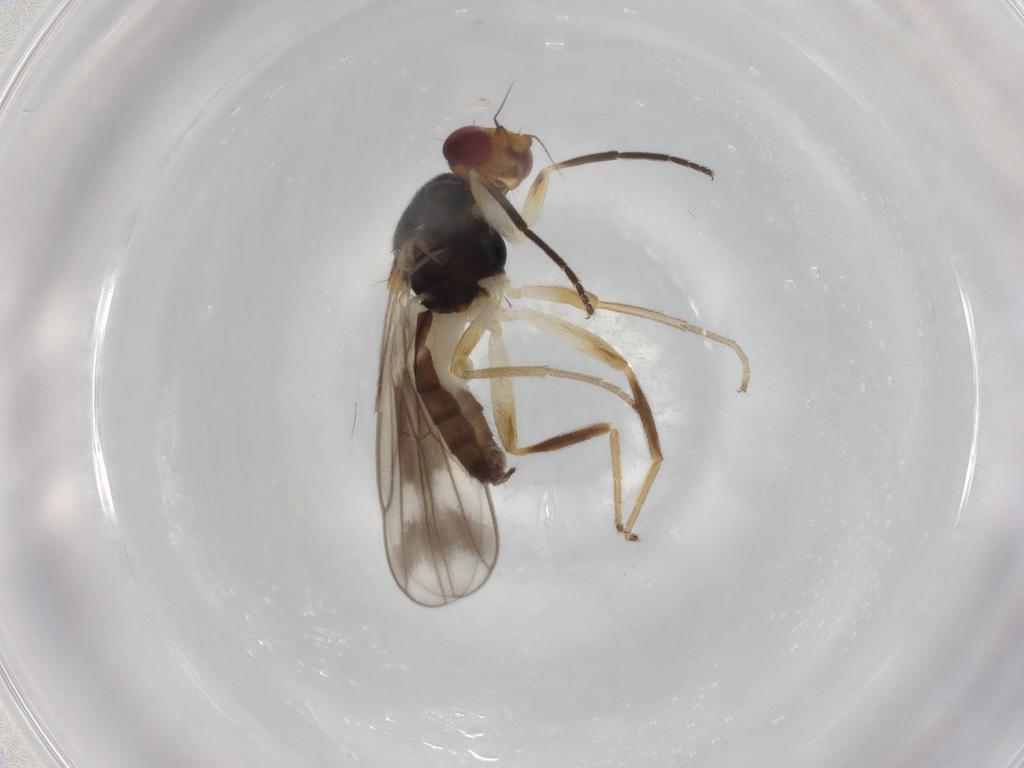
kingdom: Animalia
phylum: Arthropoda
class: Insecta
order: Diptera
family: Chloropidae
